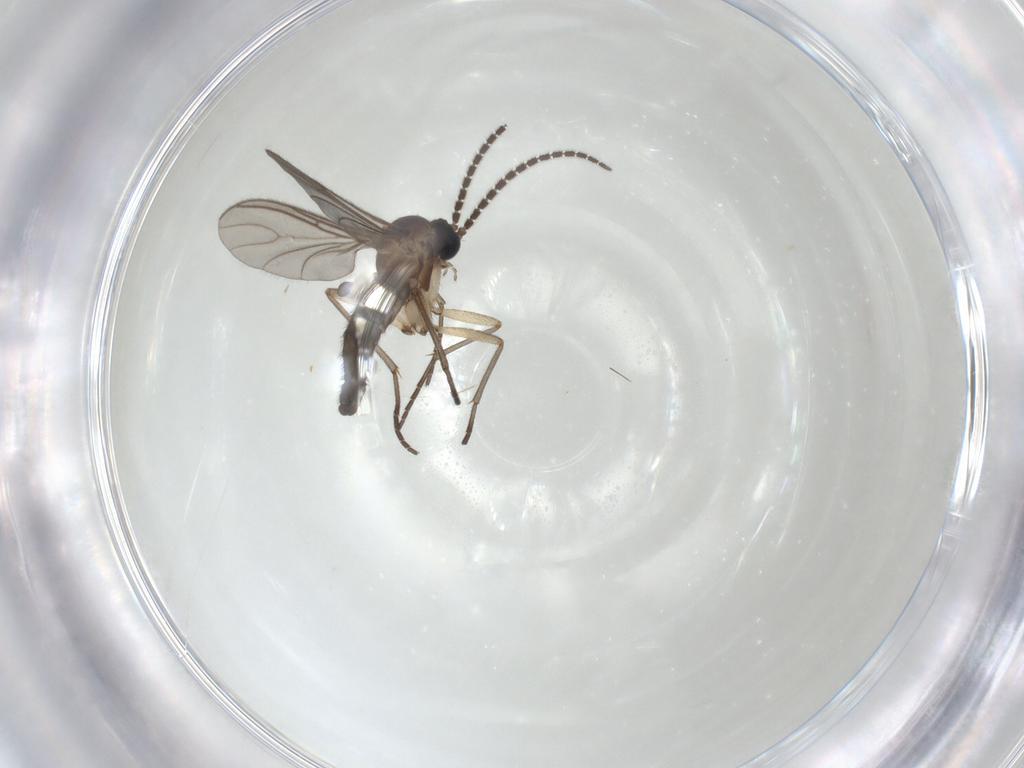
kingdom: Animalia
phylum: Arthropoda
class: Insecta
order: Diptera
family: Sciaridae
